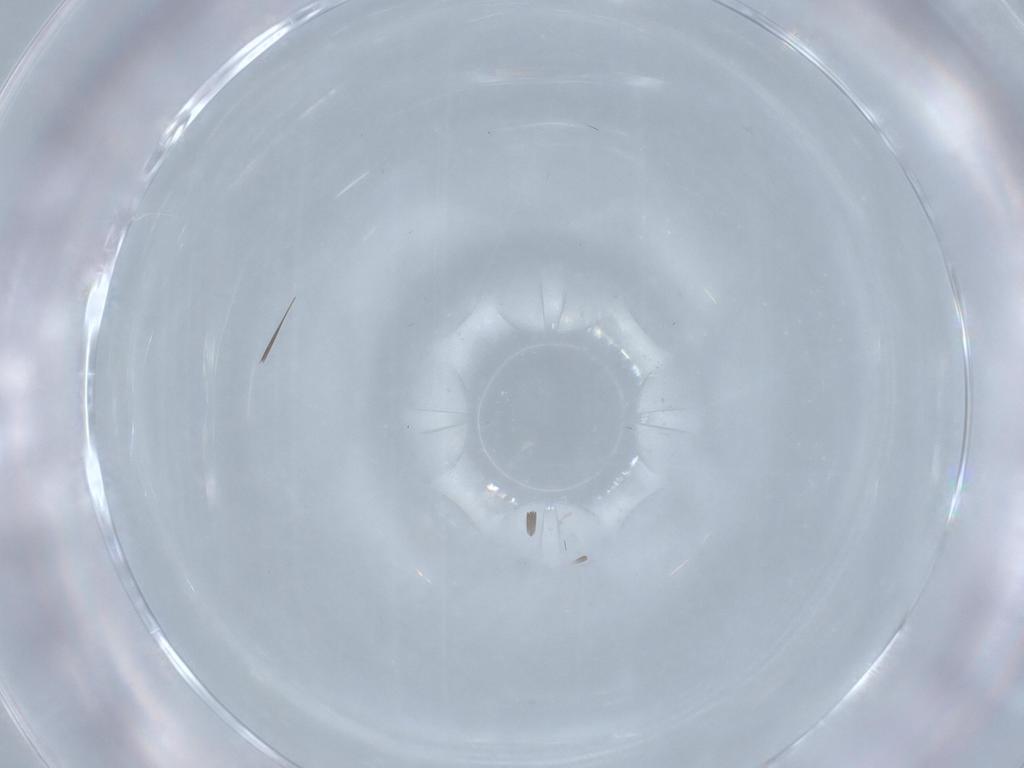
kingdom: Animalia
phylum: Arthropoda
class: Insecta
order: Psocodea
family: Amphientomidae
